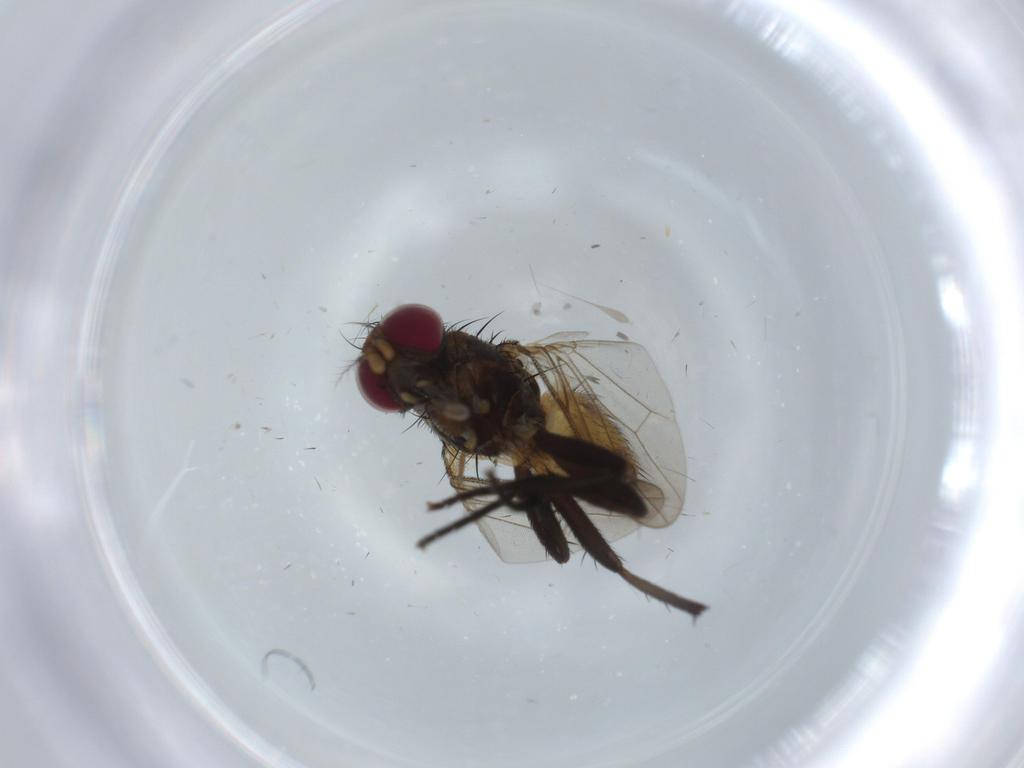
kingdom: Animalia
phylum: Arthropoda
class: Insecta
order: Diptera
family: Anthomyiidae
